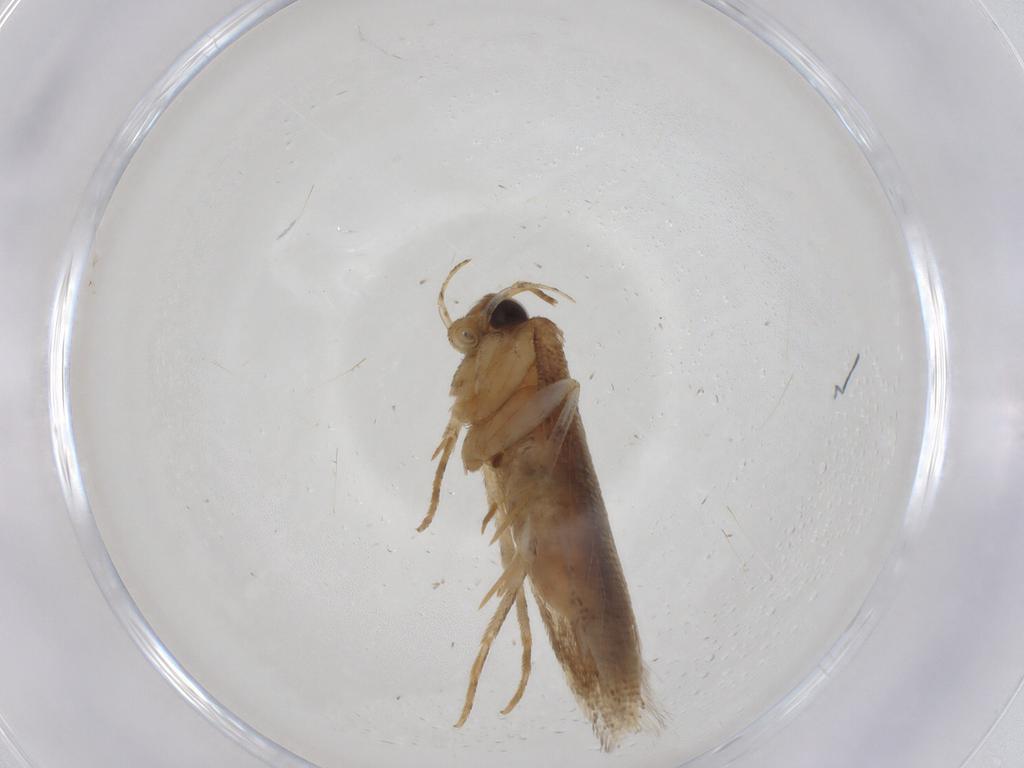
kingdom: Animalia
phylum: Arthropoda
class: Insecta
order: Lepidoptera
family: Gelechiidae
